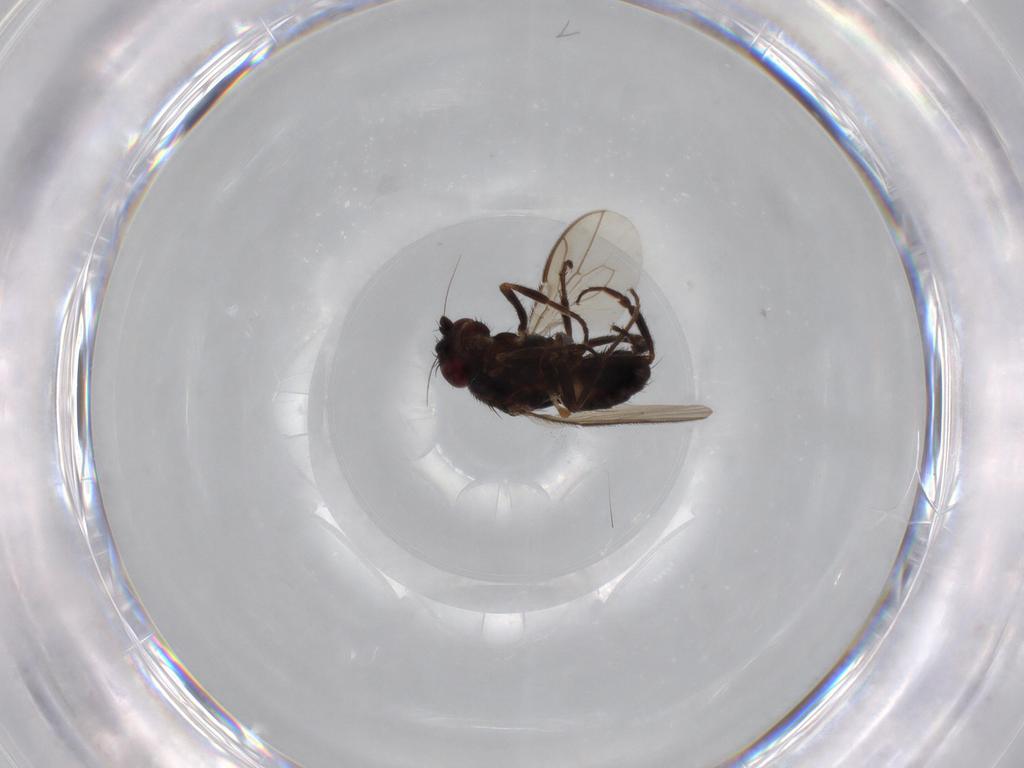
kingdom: Animalia
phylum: Arthropoda
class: Insecta
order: Diptera
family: Sphaeroceridae
